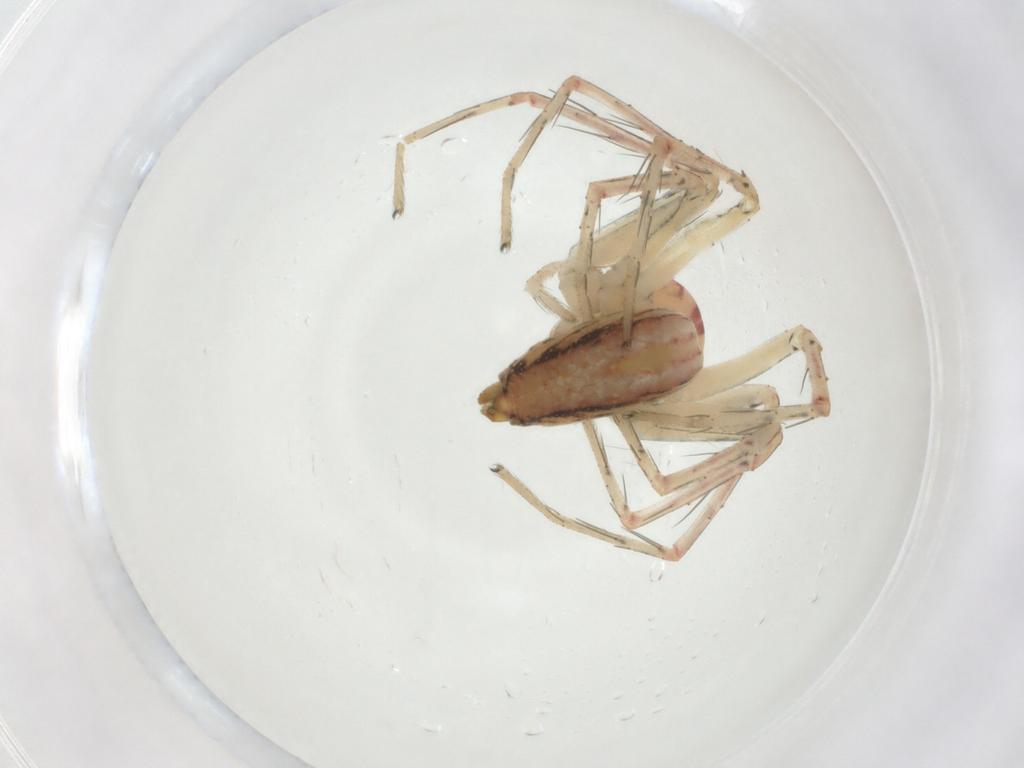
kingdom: Animalia
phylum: Arthropoda
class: Arachnida
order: Araneae
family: Oxyopidae
